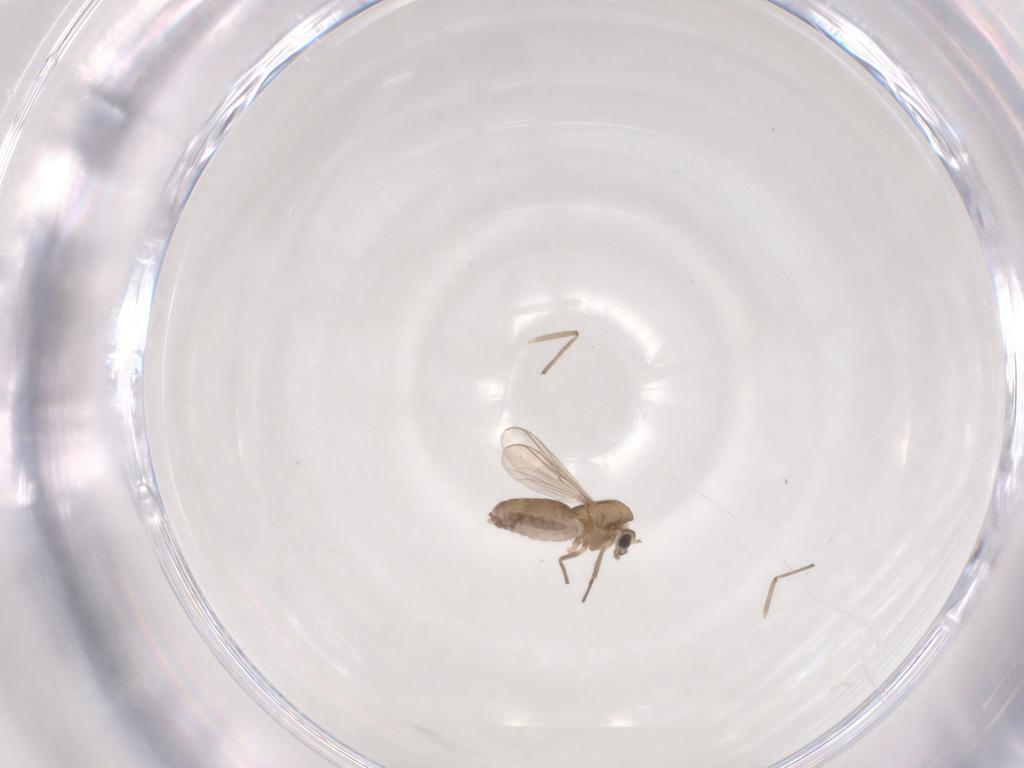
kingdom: Animalia
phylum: Arthropoda
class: Insecta
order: Diptera
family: Chironomidae
